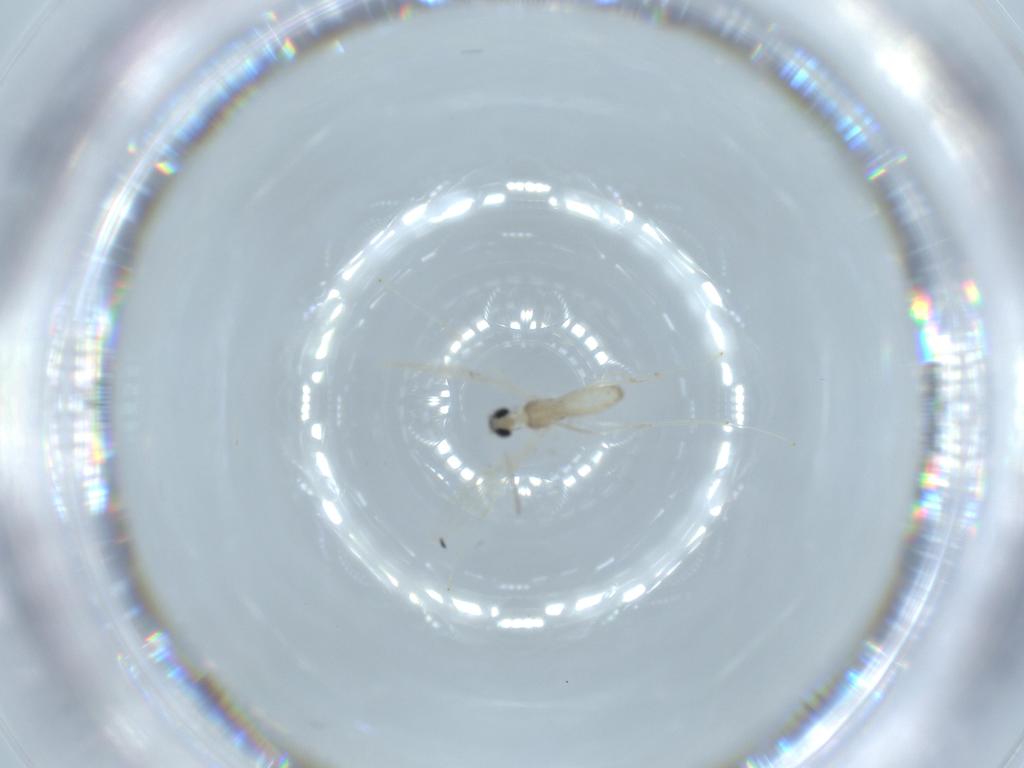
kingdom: Animalia
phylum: Arthropoda
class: Insecta
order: Diptera
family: Cecidomyiidae
